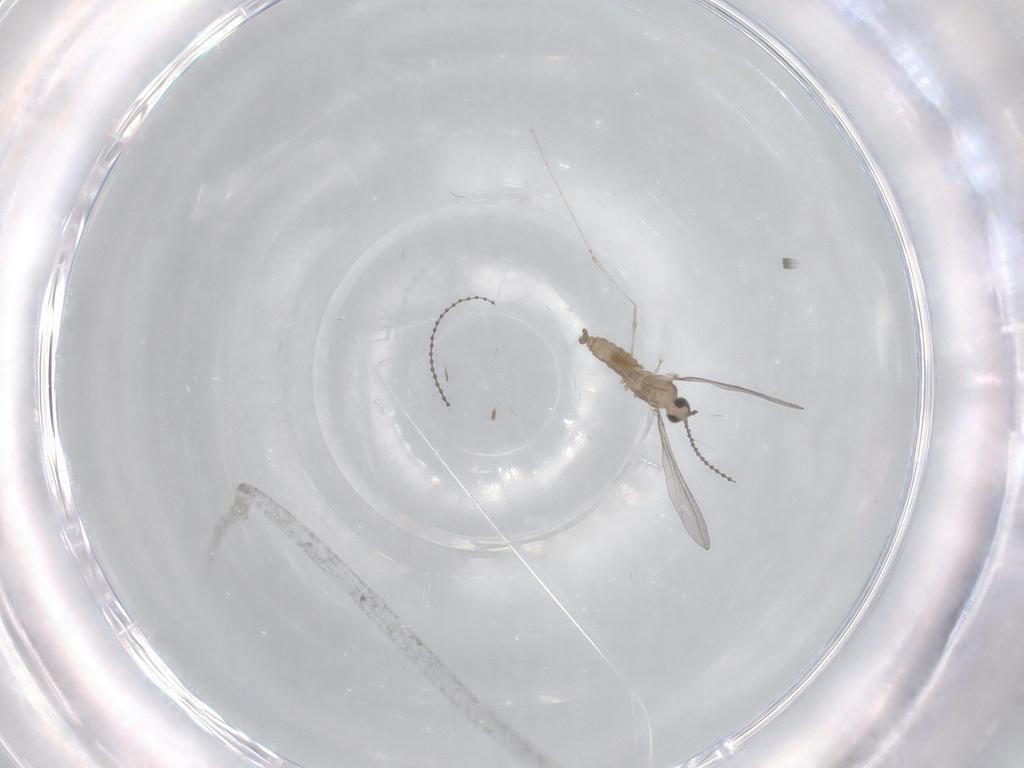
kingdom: Animalia
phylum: Arthropoda
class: Insecta
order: Diptera
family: Cecidomyiidae
